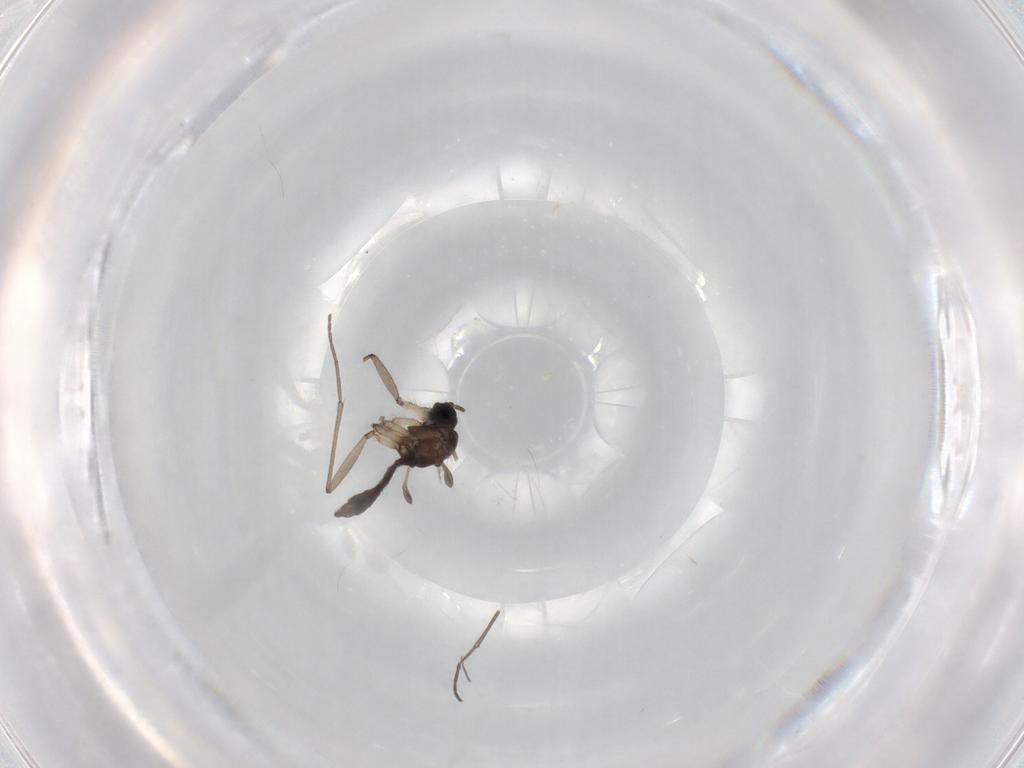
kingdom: Animalia
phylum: Arthropoda
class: Insecta
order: Diptera
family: Sciaridae
